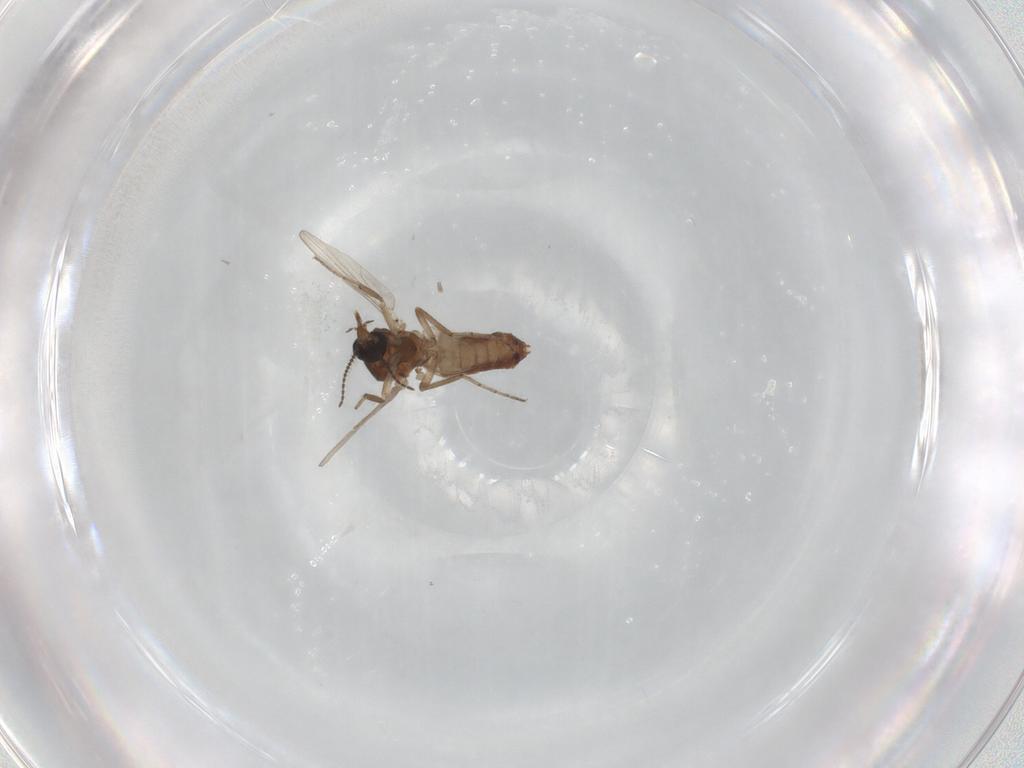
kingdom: Animalia
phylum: Arthropoda
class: Insecta
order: Diptera
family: Ceratopogonidae
